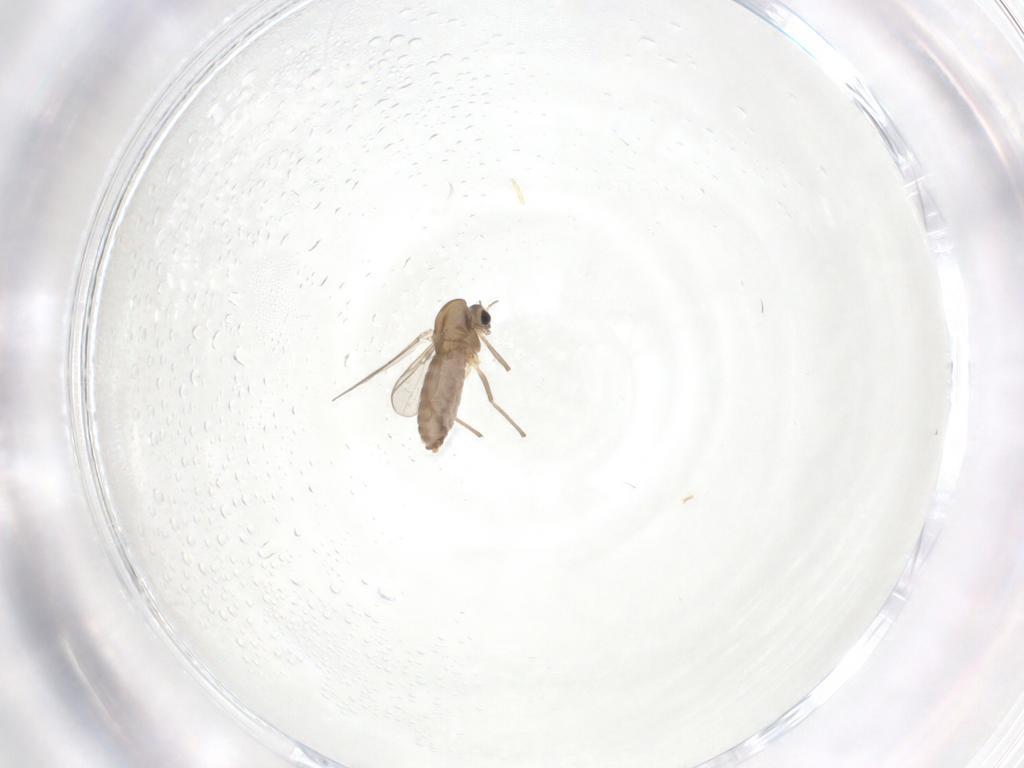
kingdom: Animalia
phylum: Arthropoda
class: Insecta
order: Diptera
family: Chironomidae
